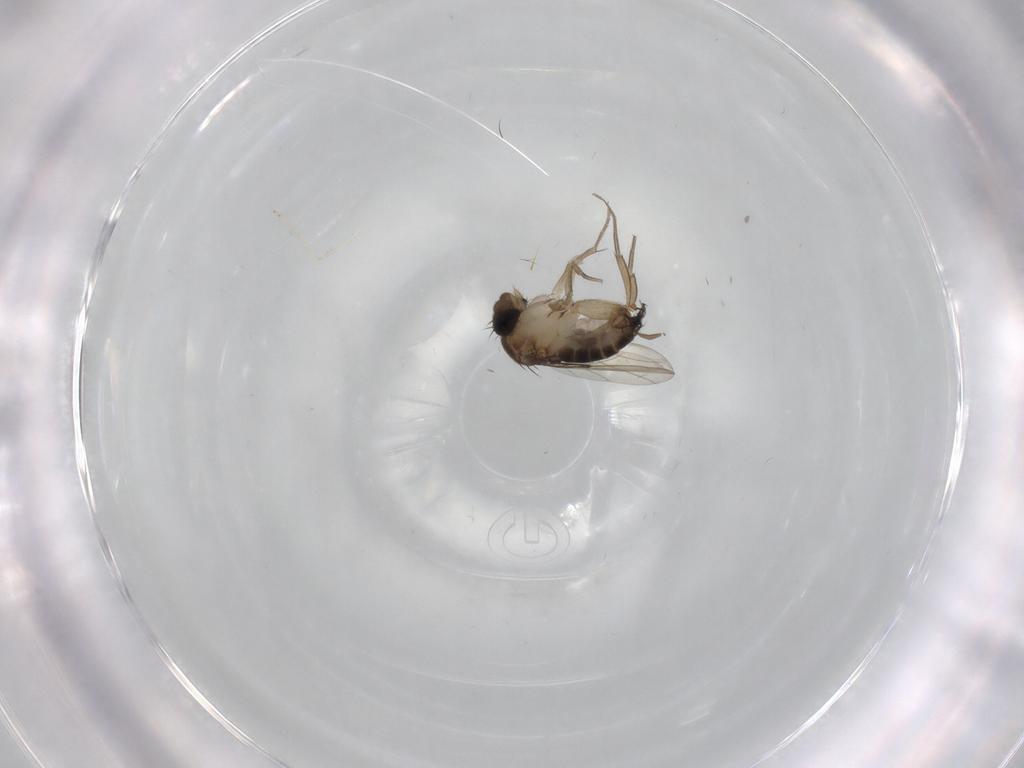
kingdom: Animalia
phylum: Arthropoda
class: Insecta
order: Diptera
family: Cecidomyiidae
